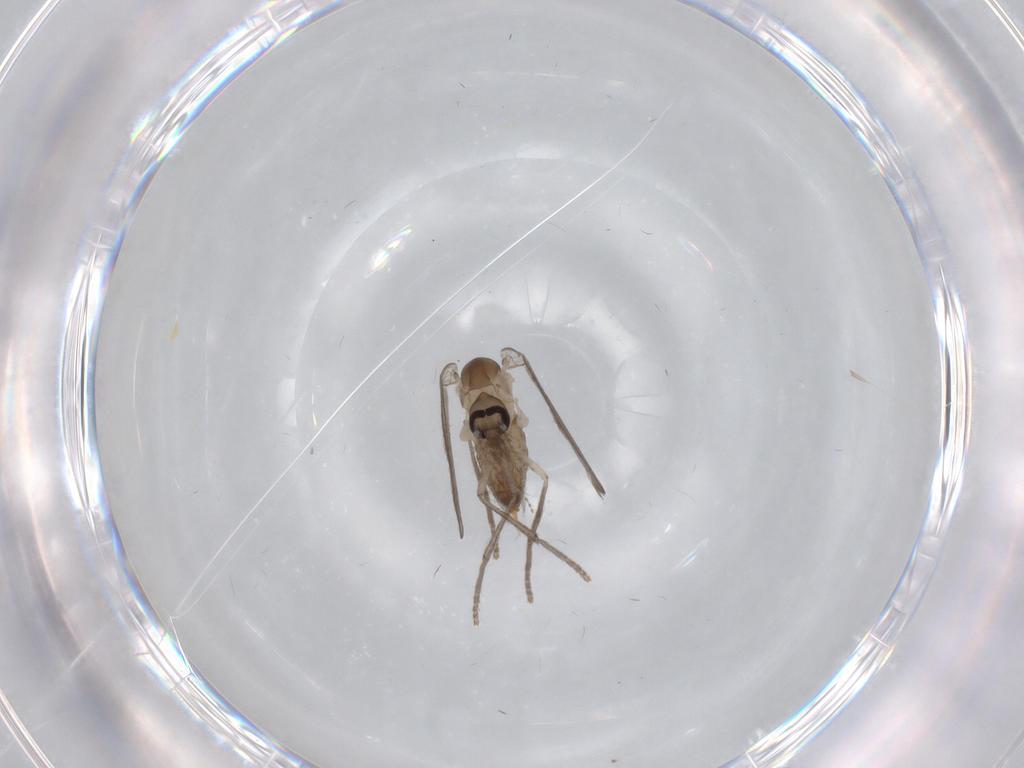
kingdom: Animalia
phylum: Arthropoda
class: Insecta
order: Diptera
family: Psychodidae
